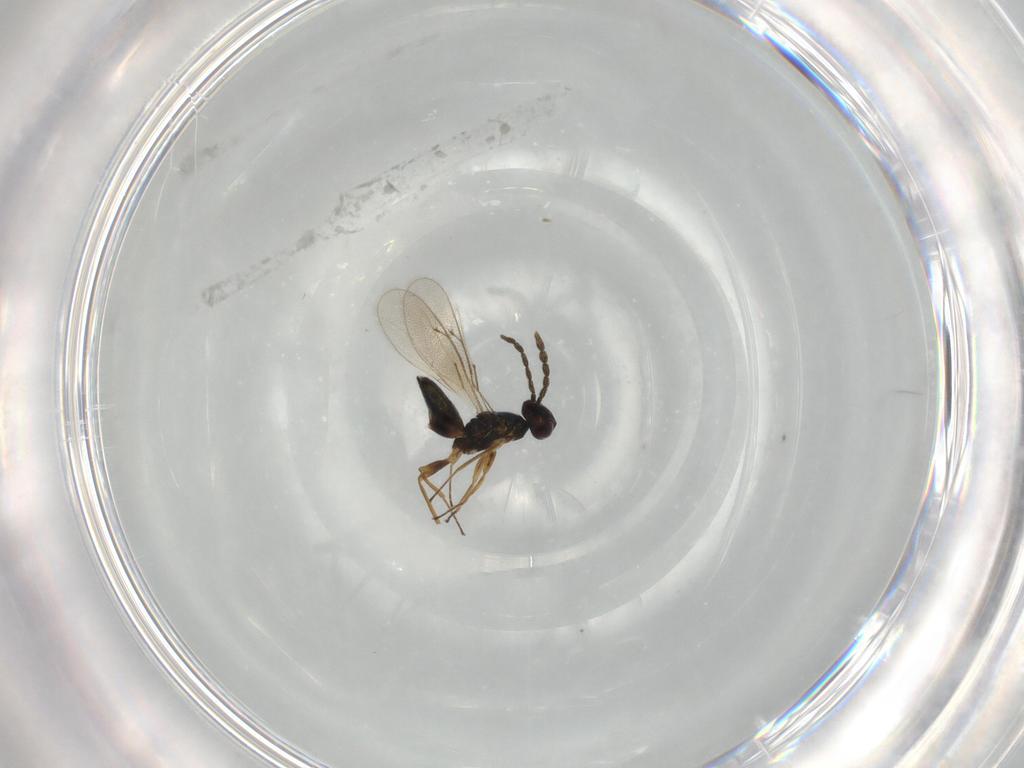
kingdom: Animalia
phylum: Arthropoda
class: Insecta
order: Hymenoptera
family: Eulophidae
